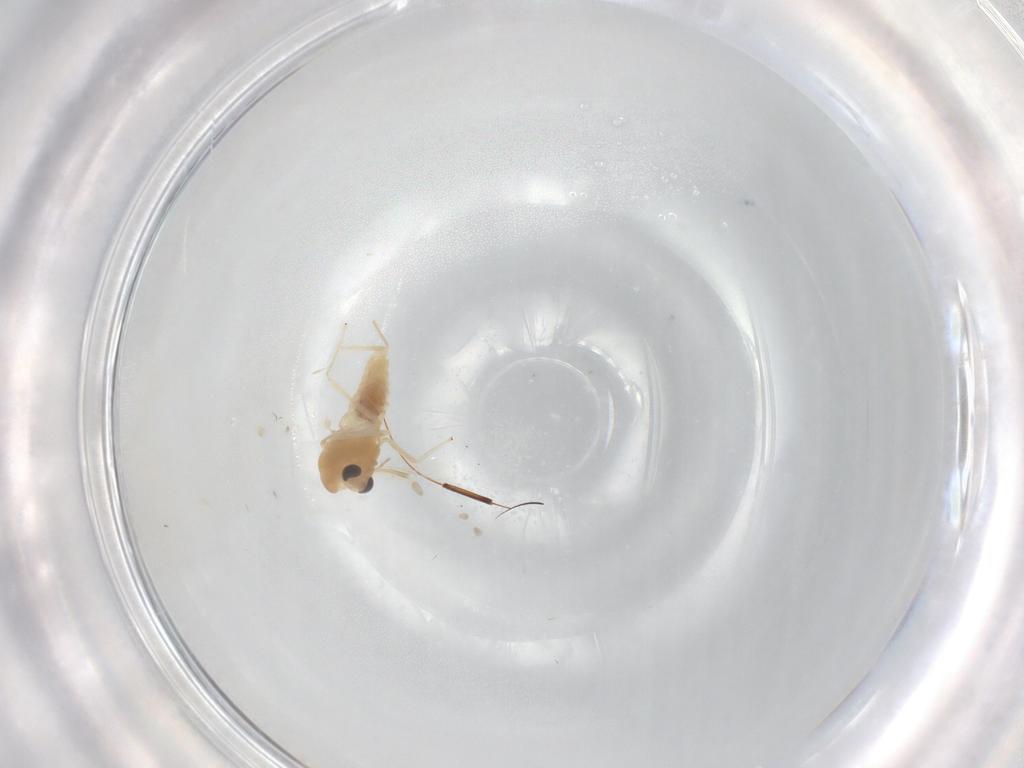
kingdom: Animalia
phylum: Arthropoda
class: Insecta
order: Diptera
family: Chironomidae
